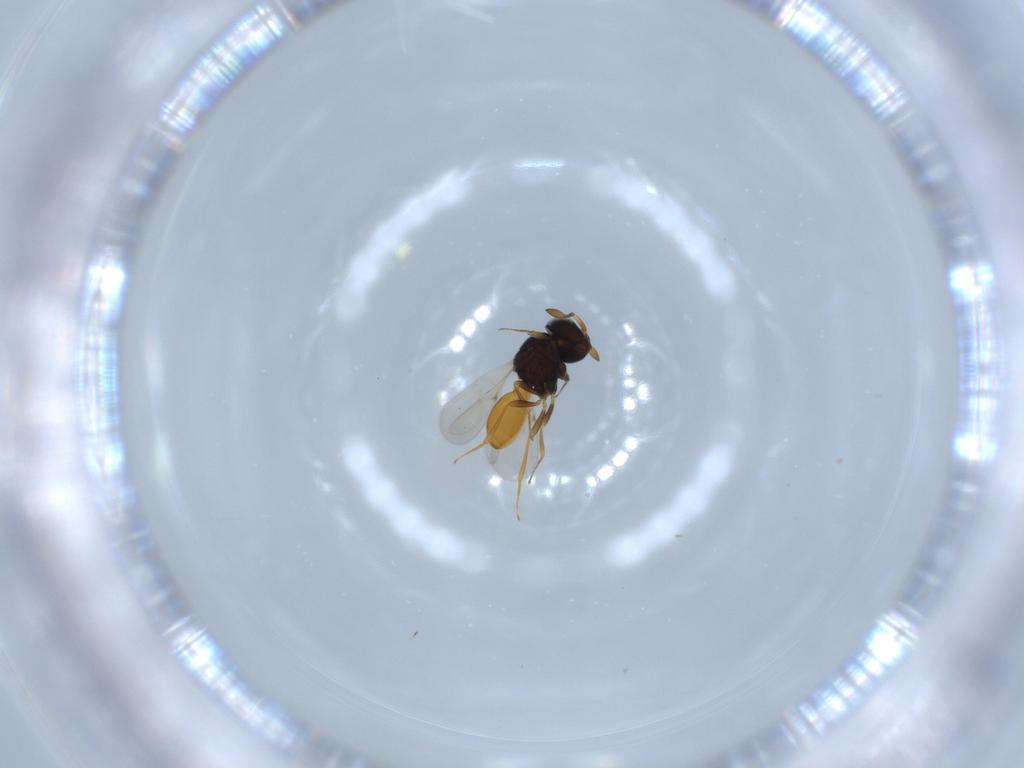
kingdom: Animalia
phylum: Arthropoda
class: Insecta
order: Hymenoptera
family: Scelionidae
